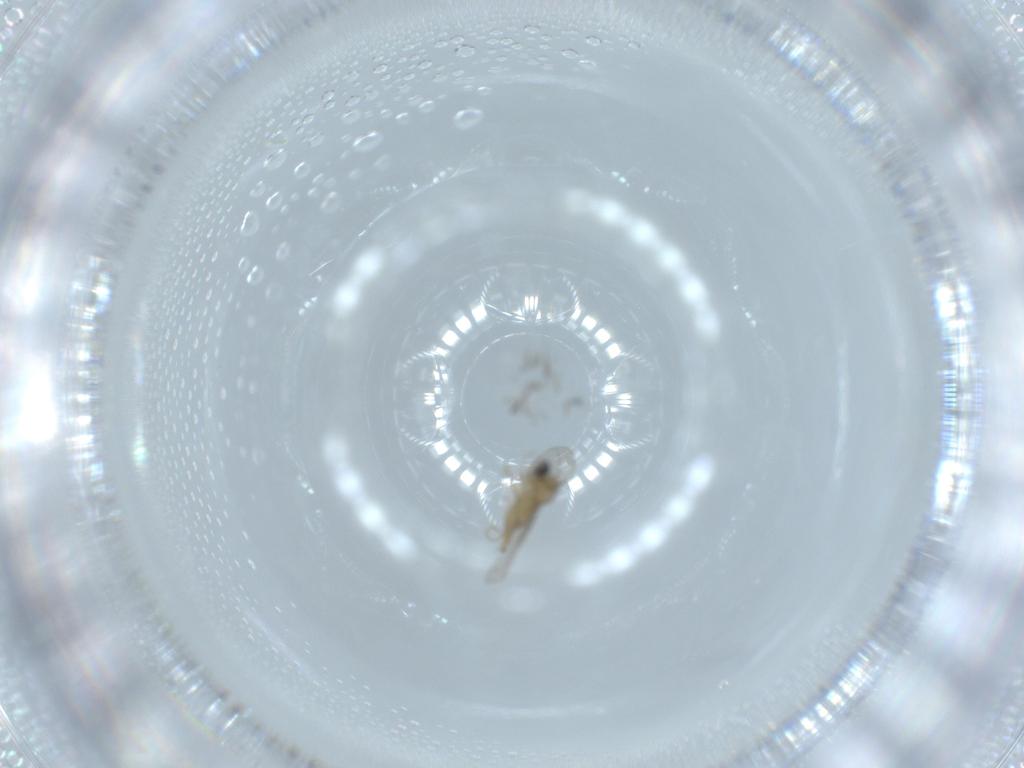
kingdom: Animalia
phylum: Arthropoda
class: Insecta
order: Diptera
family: Cecidomyiidae
